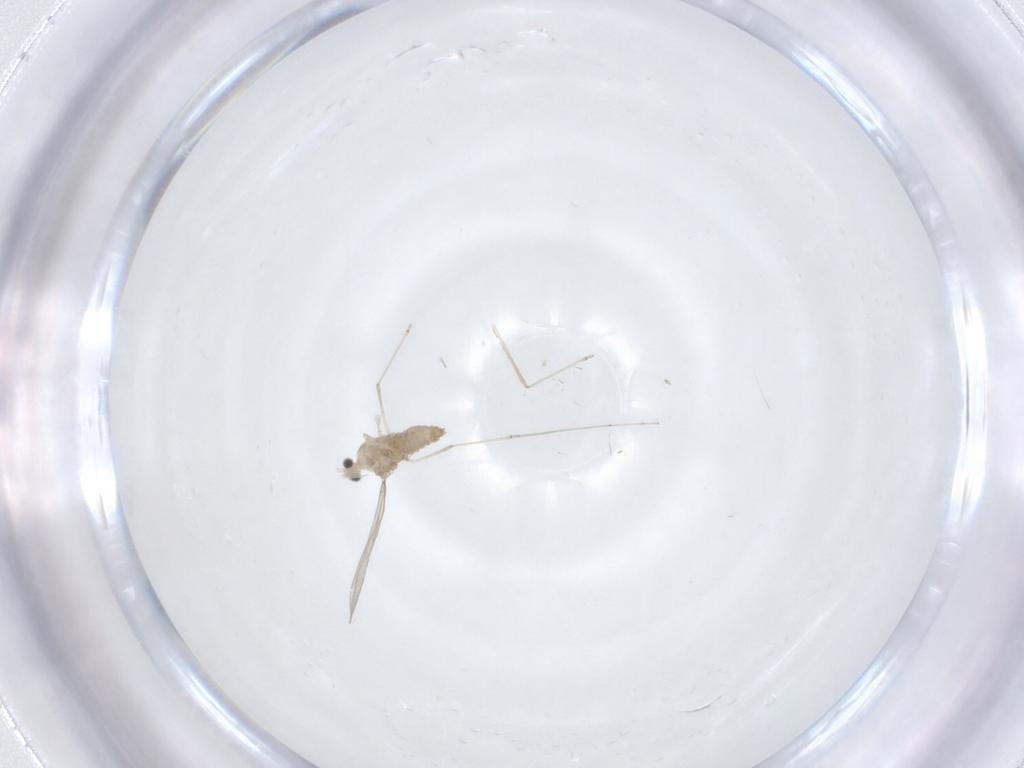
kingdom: Animalia
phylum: Arthropoda
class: Insecta
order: Diptera
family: Cecidomyiidae
